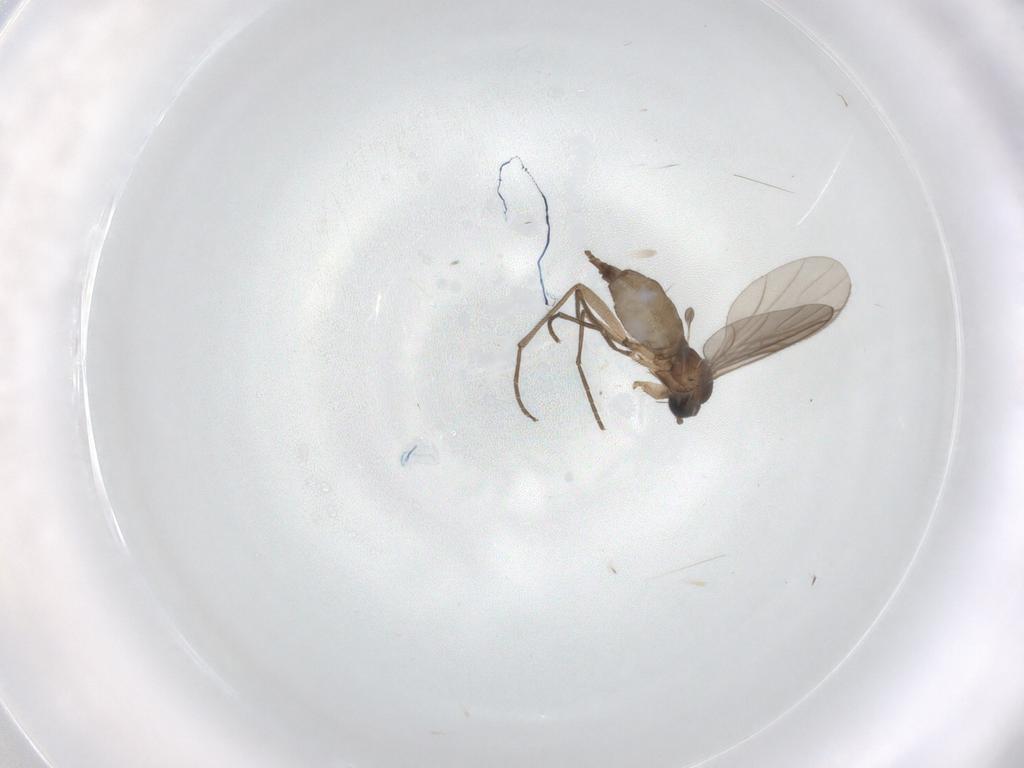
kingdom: Animalia
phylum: Arthropoda
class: Insecta
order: Diptera
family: Sciaridae
